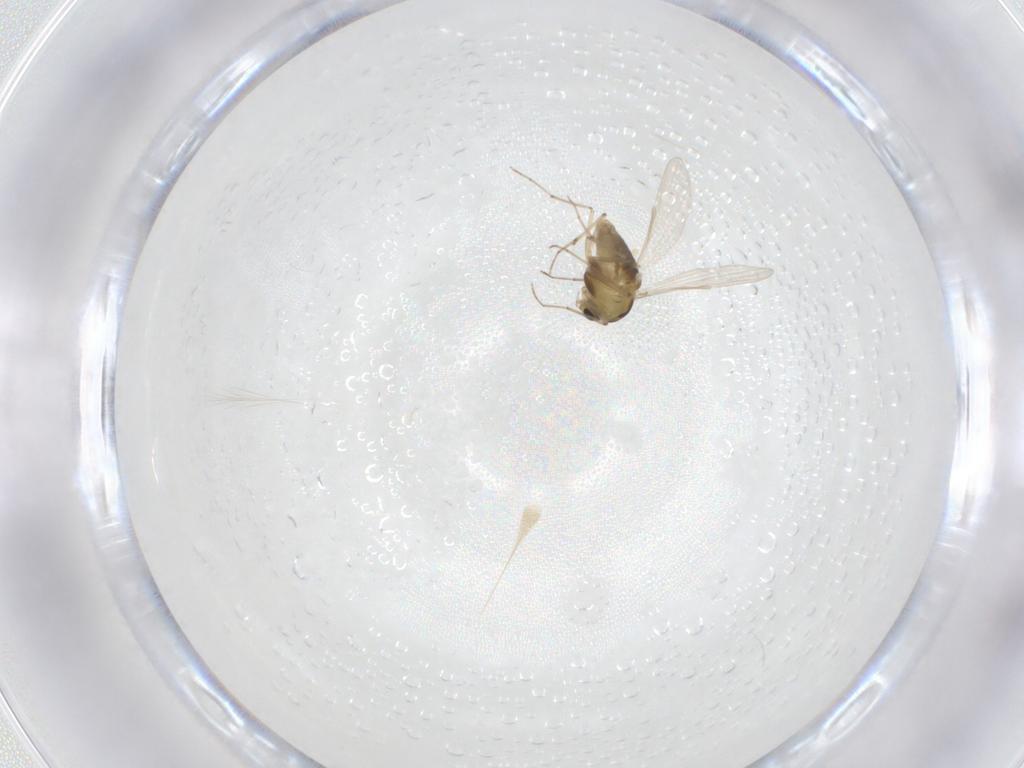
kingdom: Animalia
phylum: Arthropoda
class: Insecta
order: Diptera
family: Chironomidae
